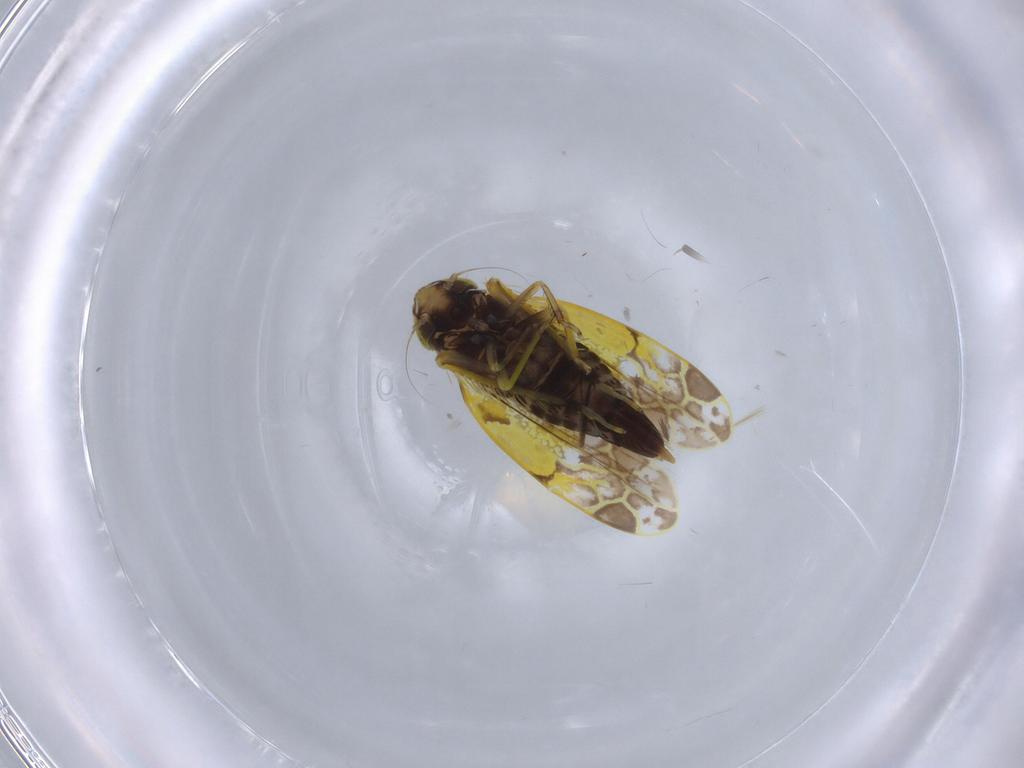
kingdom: Animalia
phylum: Arthropoda
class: Insecta
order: Hemiptera
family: Cicadellidae
